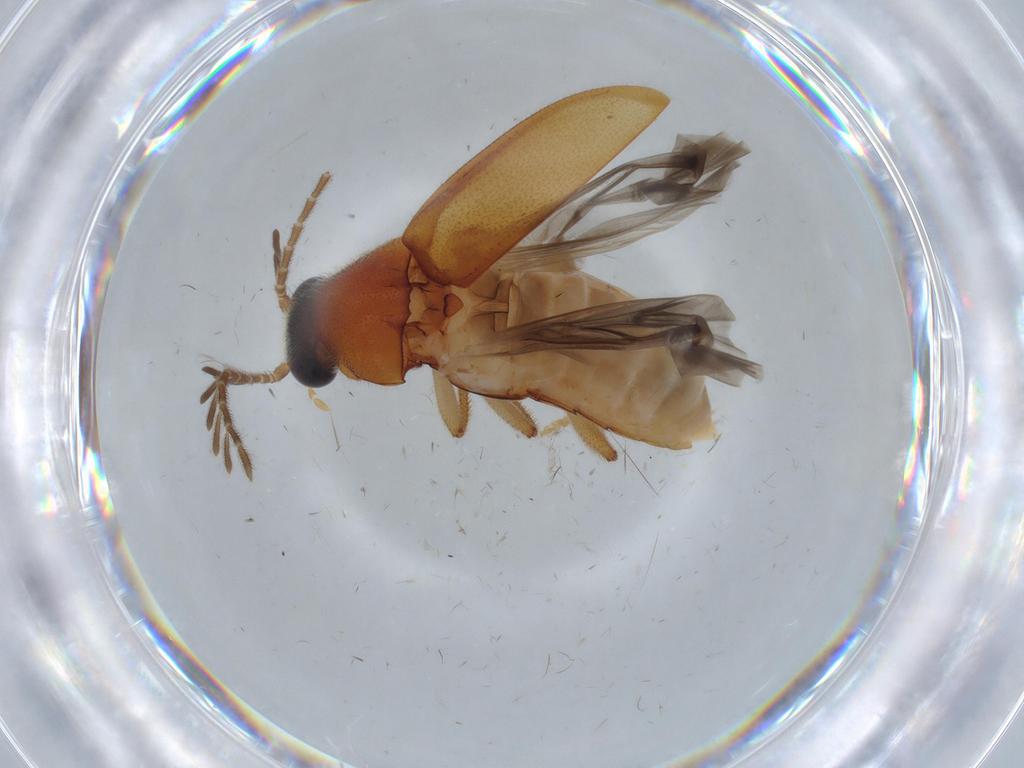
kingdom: Animalia
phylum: Arthropoda
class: Insecta
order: Coleoptera
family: Ptilodactylidae
